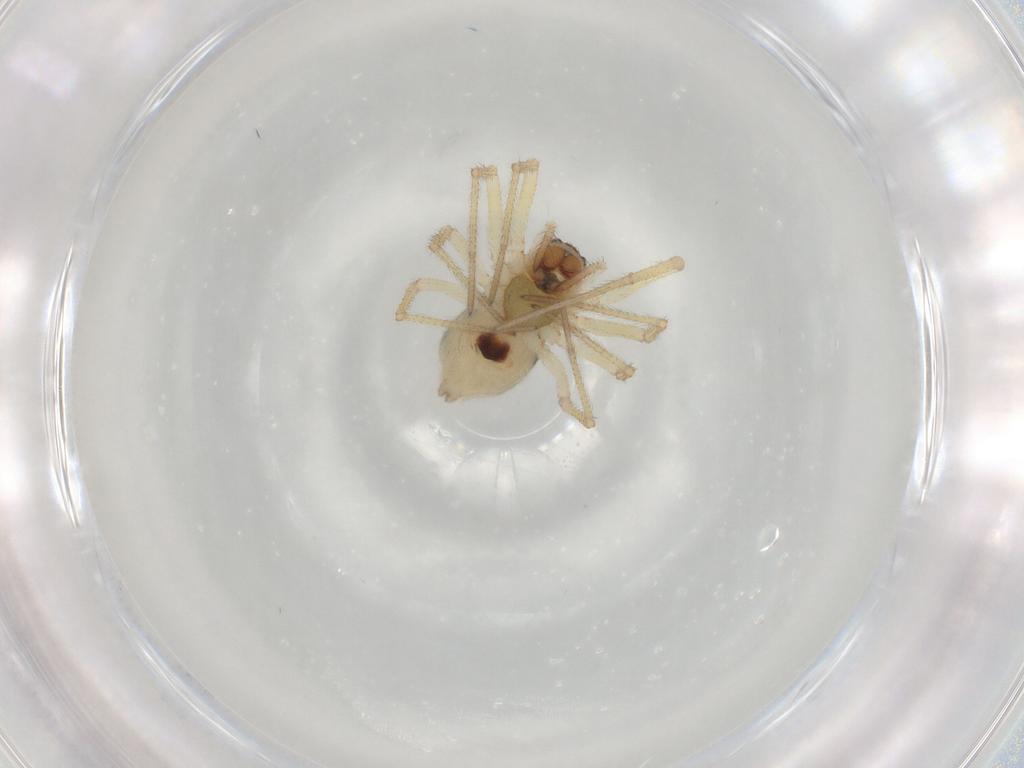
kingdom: Animalia
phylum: Arthropoda
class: Arachnida
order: Araneae
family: Linyphiidae
